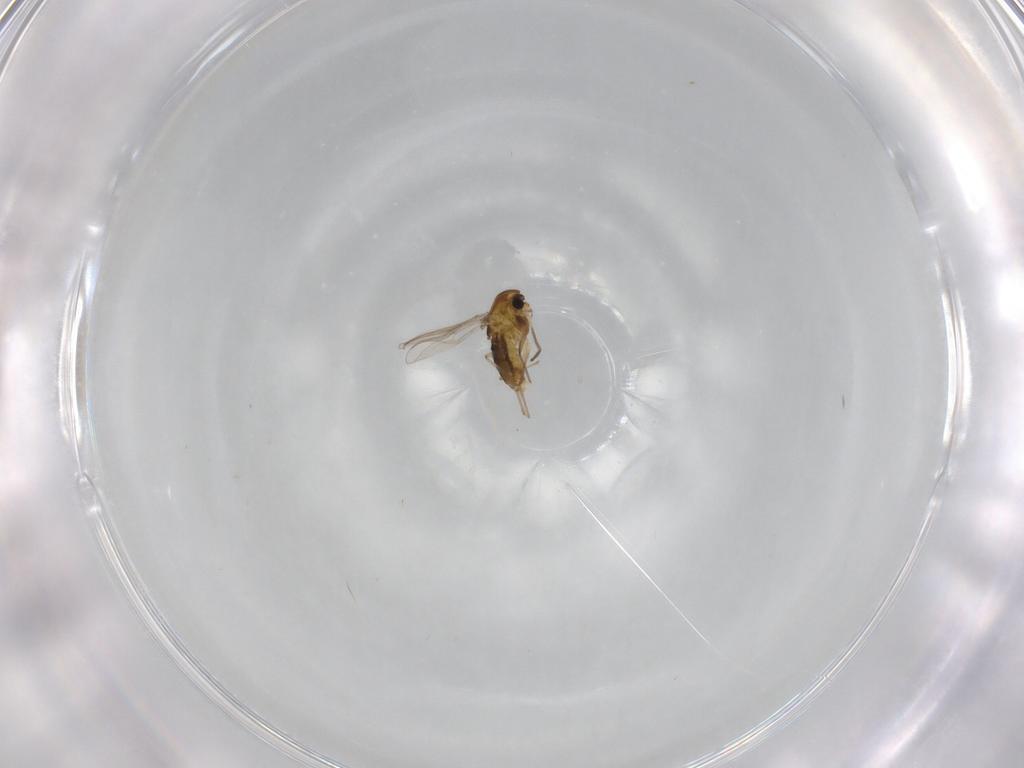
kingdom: Animalia
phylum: Arthropoda
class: Insecta
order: Diptera
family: Chironomidae
